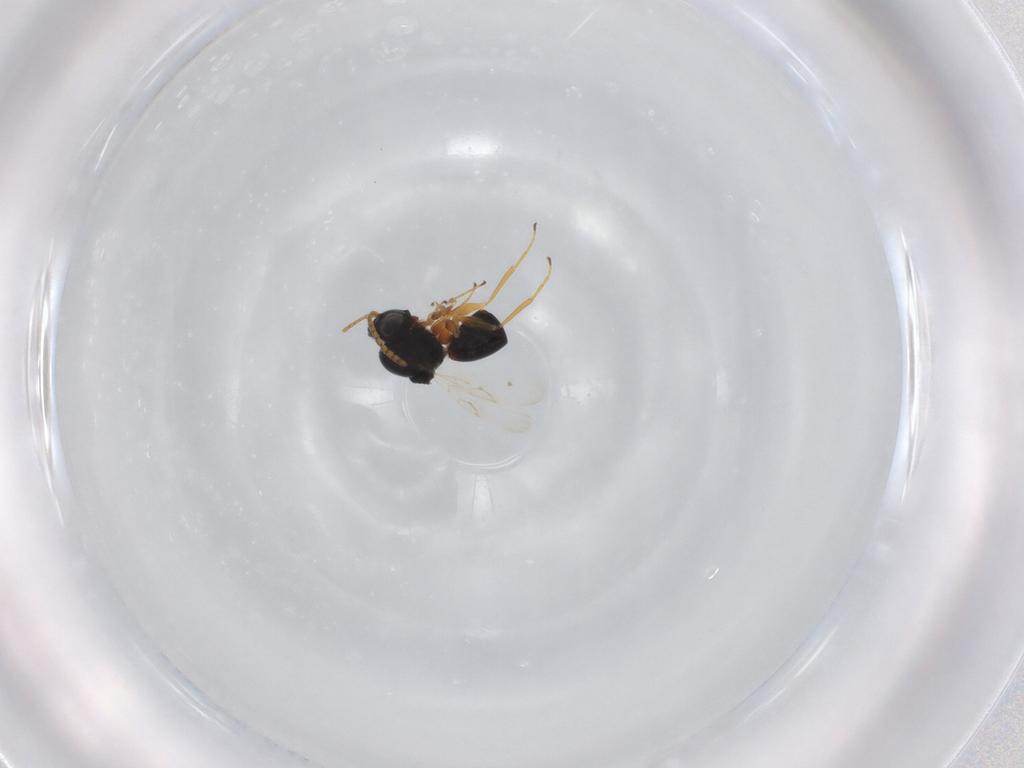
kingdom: Animalia
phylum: Arthropoda
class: Insecta
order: Hymenoptera
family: Figitidae
